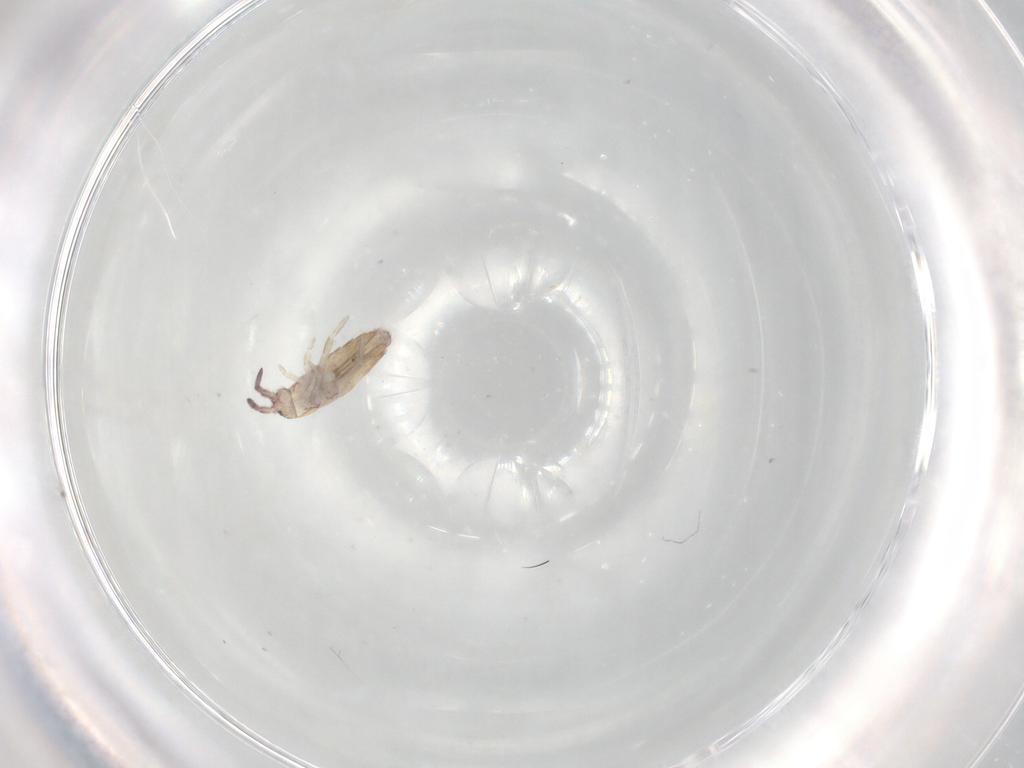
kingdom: Animalia
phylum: Arthropoda
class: Collembola
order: Entomobryomorpha
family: Entomobryidae
